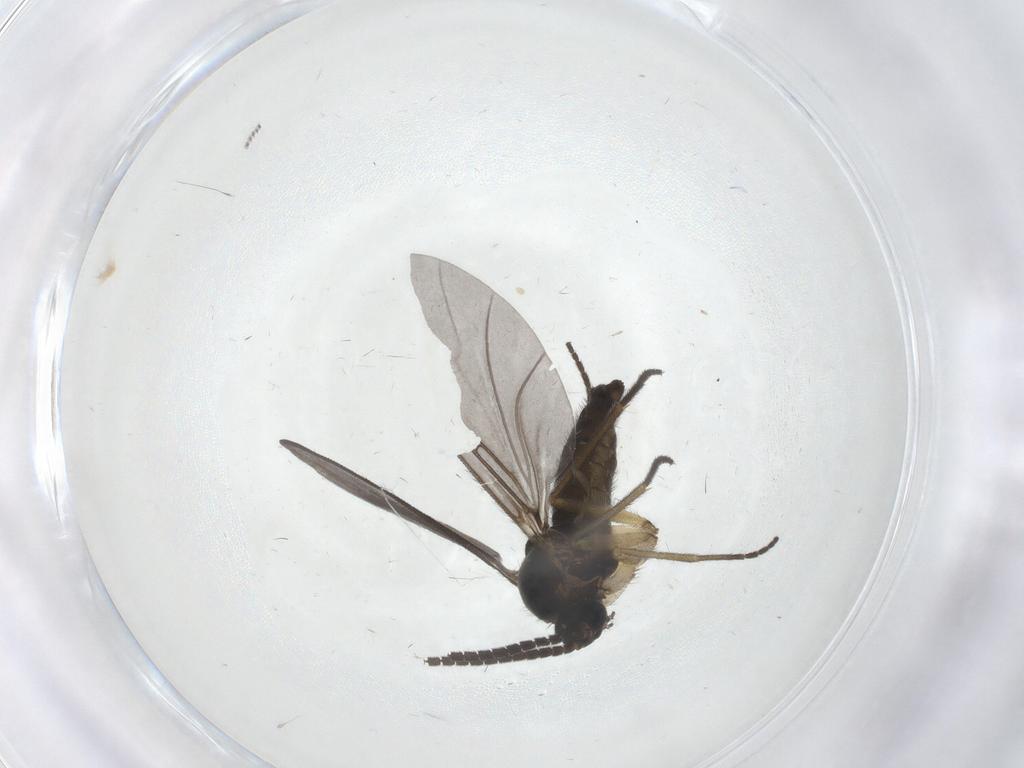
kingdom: Animalia
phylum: Arthropoda
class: Insecta
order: Diptera
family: Sciaridae
